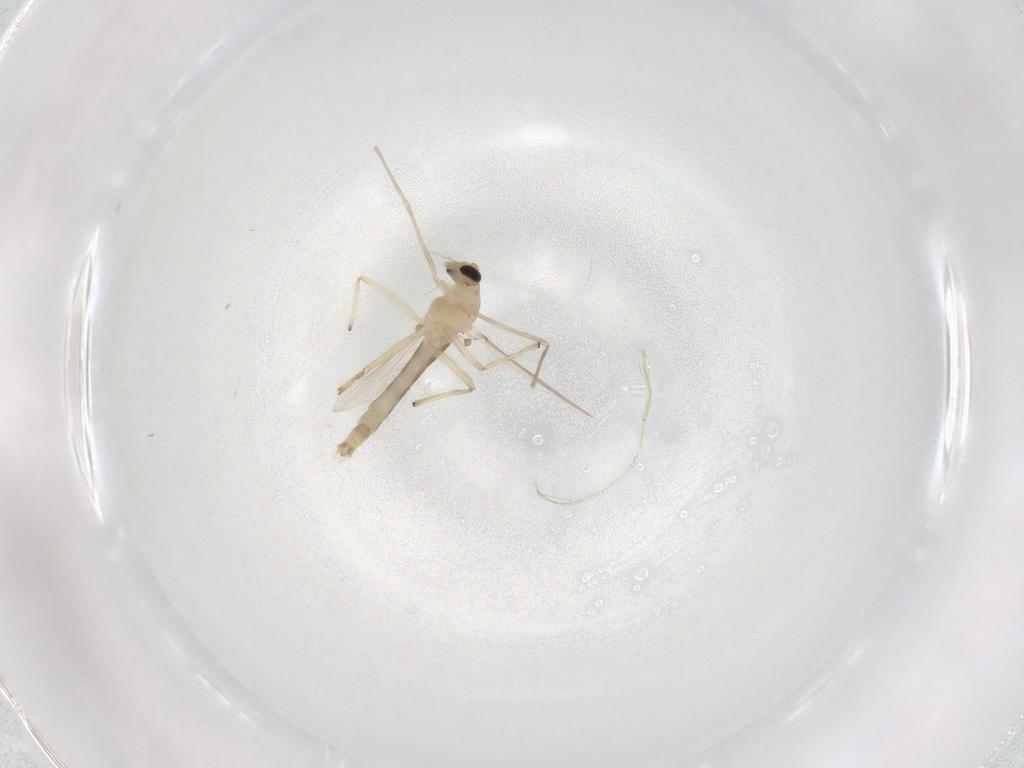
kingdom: Animalia
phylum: Arthropoda
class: Insecta
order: Diptera
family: Chironomidae
